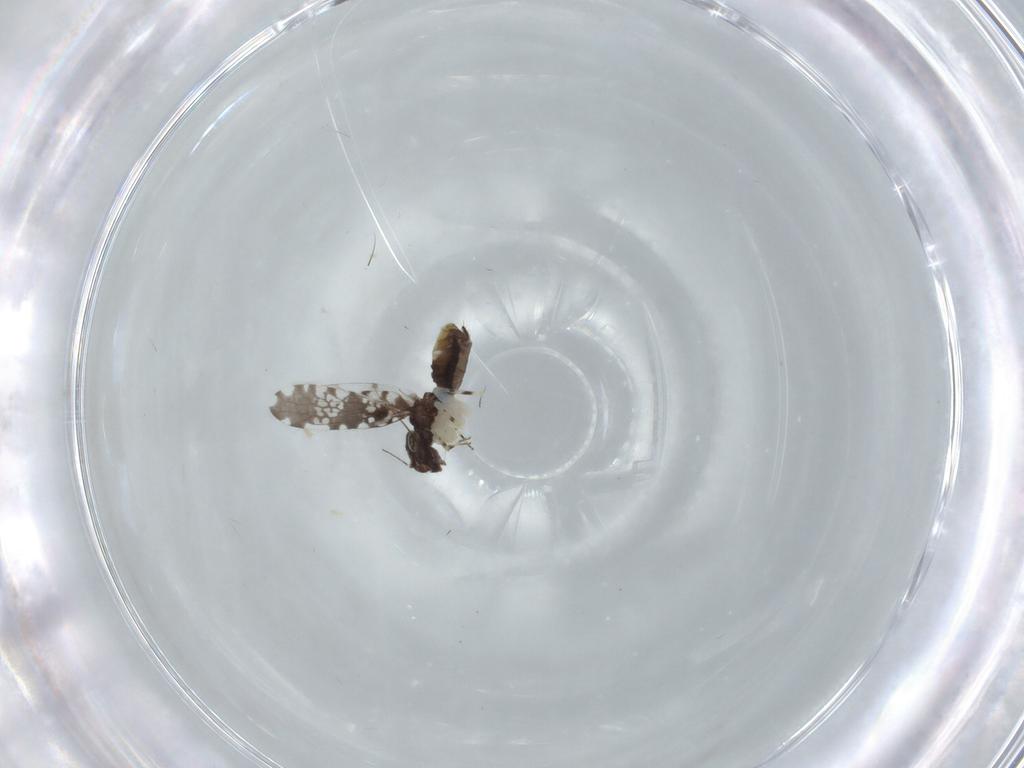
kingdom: Animalia
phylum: Arthropoda
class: Insecta
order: Psocodea
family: Psoquillidae
